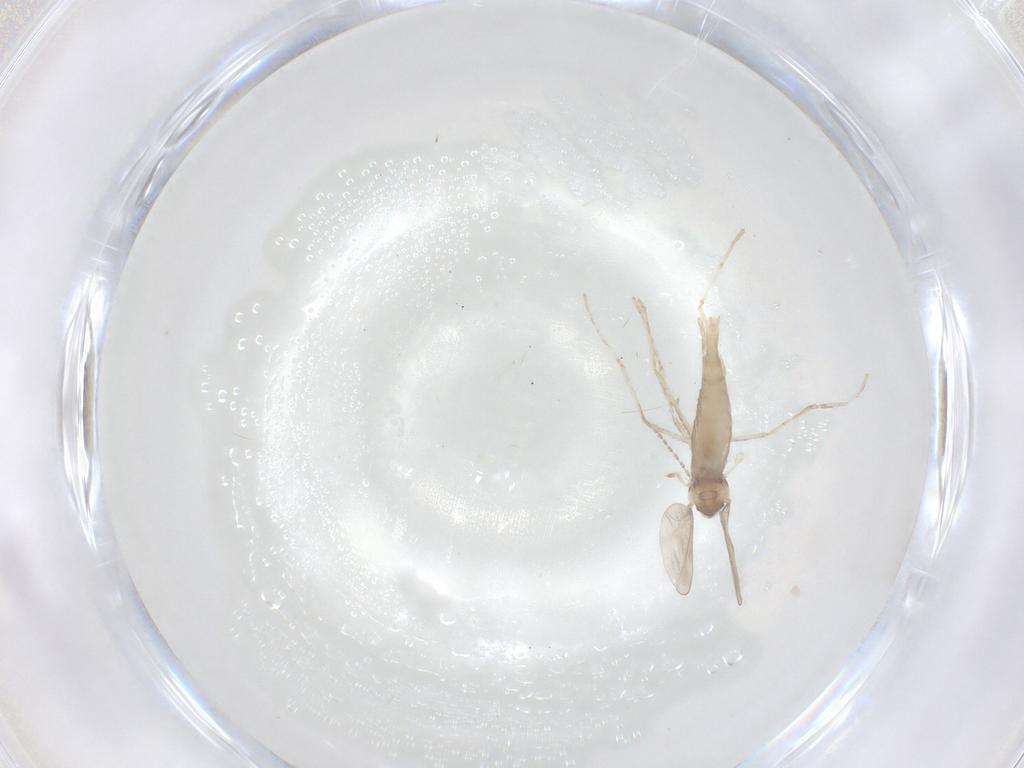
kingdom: Animalia
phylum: Arthropoda
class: Insecta
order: Diptera
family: Cecidomyiidae
